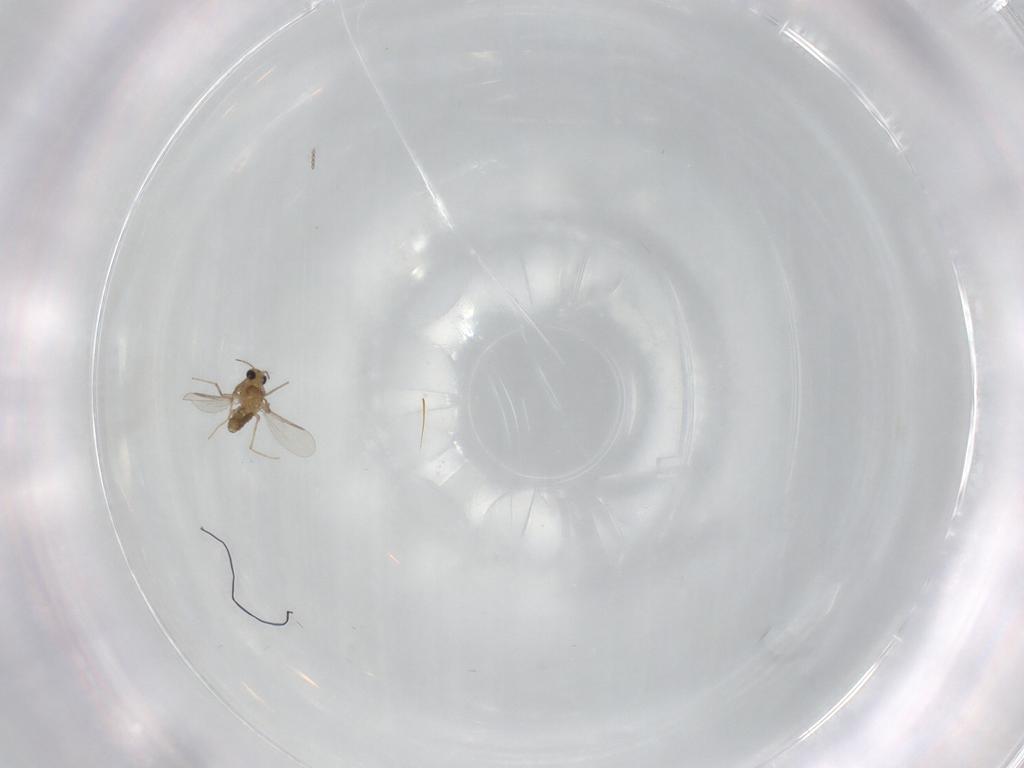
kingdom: Animalia
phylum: Arthropoda
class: Insecta
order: Diptera
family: Chironomidae
